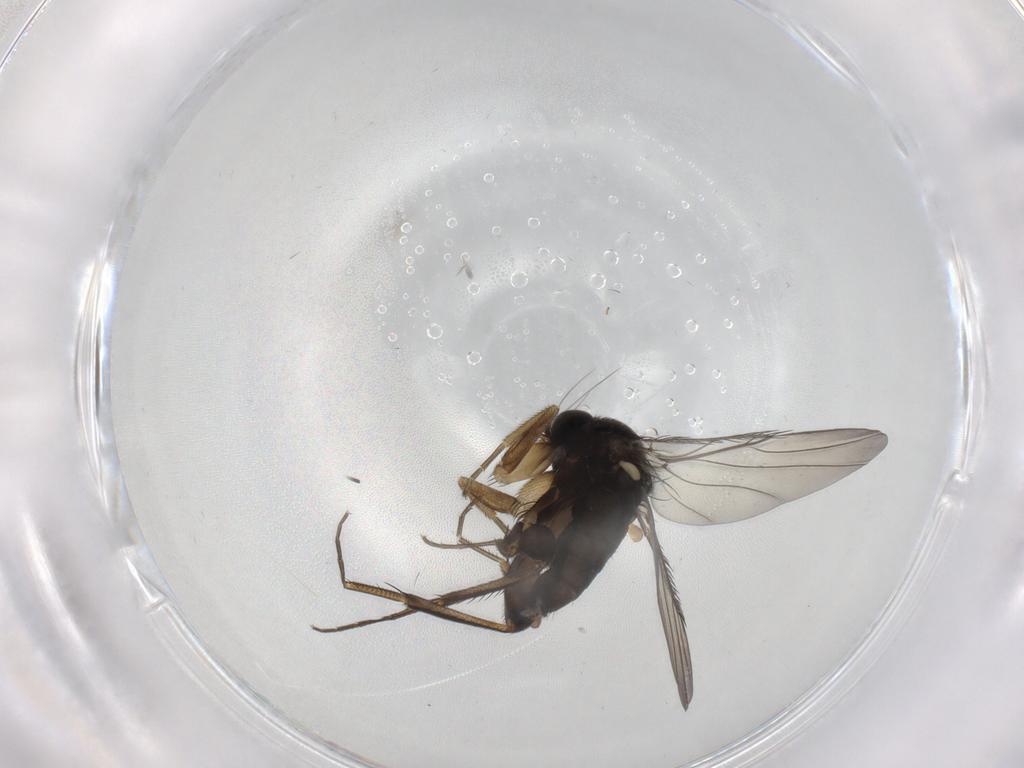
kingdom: Animalia
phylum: Arthropoda
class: Insecta
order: Diptera
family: Phoridae
